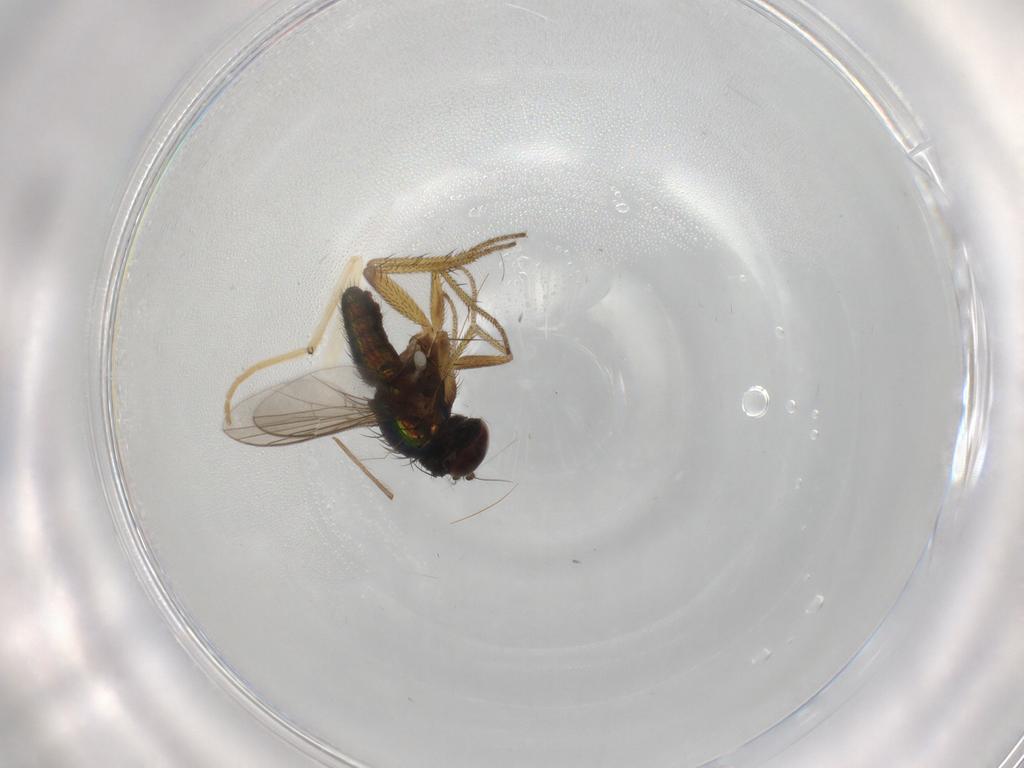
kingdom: Animalia
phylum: Arthropoda
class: Insecta
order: Diptera
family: Chironomidae
